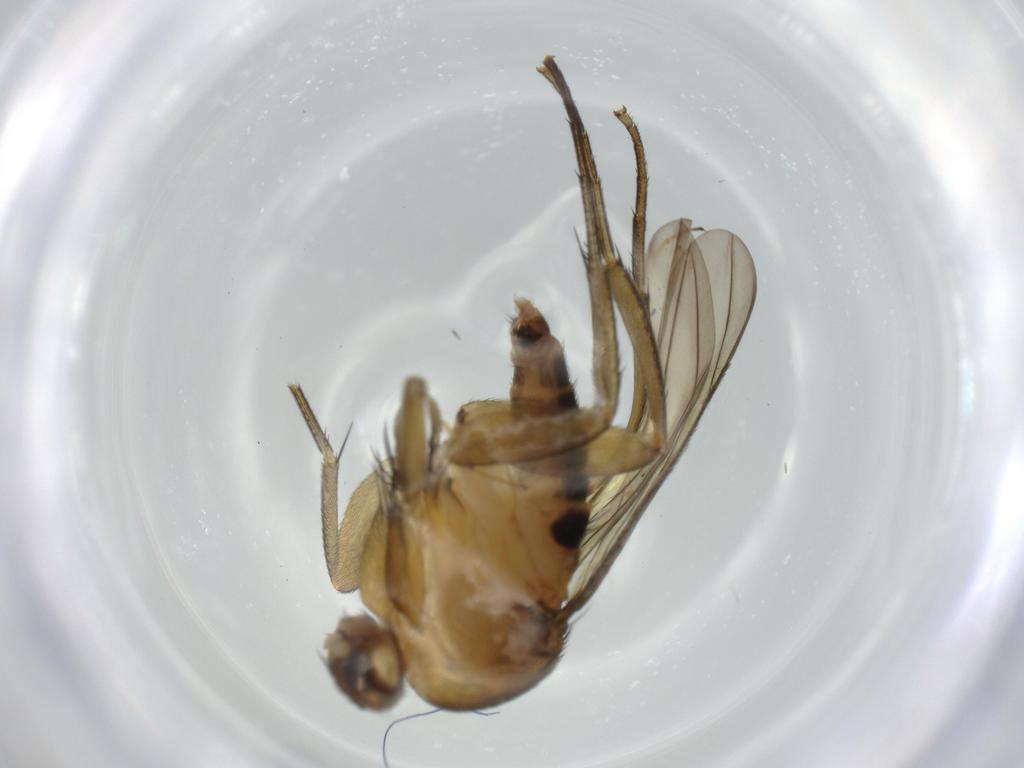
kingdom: Animalia
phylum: Arthropoda
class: Insecta
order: Diptera
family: Phoridae
